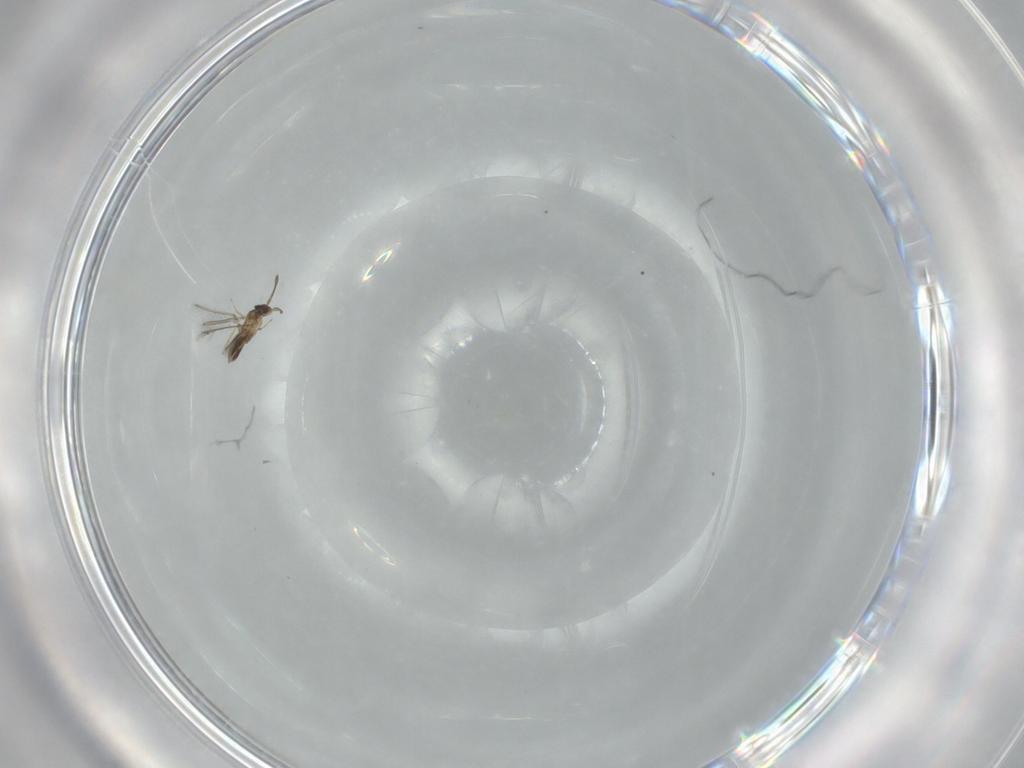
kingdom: Animalia
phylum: Arthropoda
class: Insecta
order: Hymenoptera
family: Mymaridae
